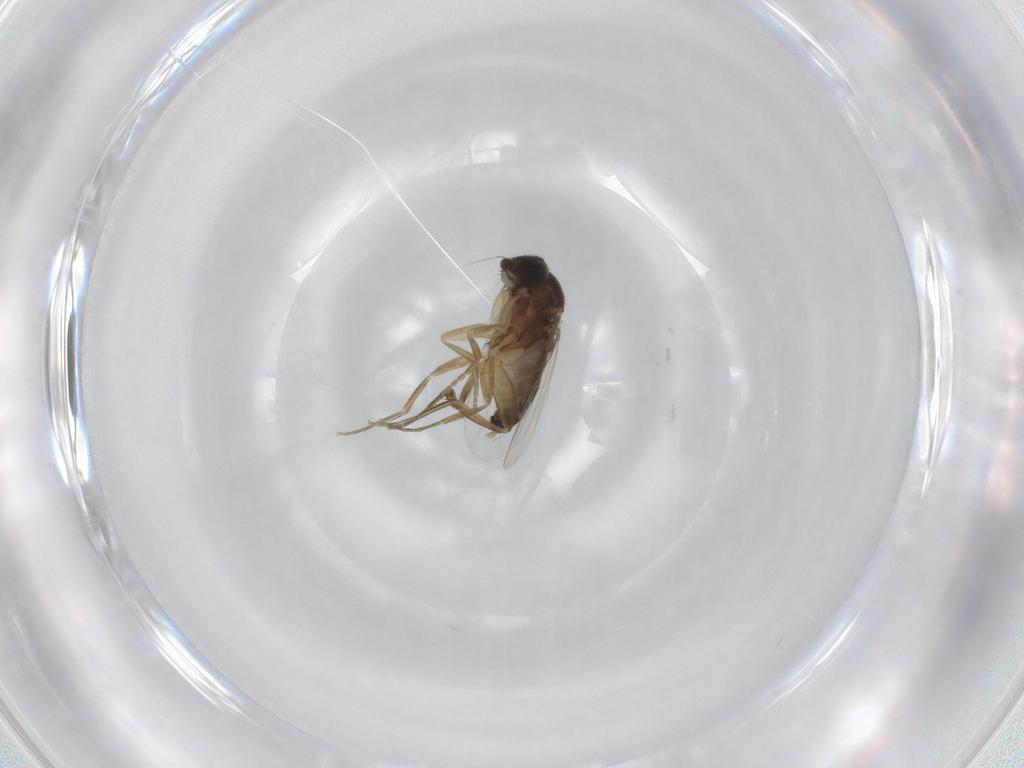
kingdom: Animalia
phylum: Arthropoda
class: Insecta
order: Diptera
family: Phoridae
